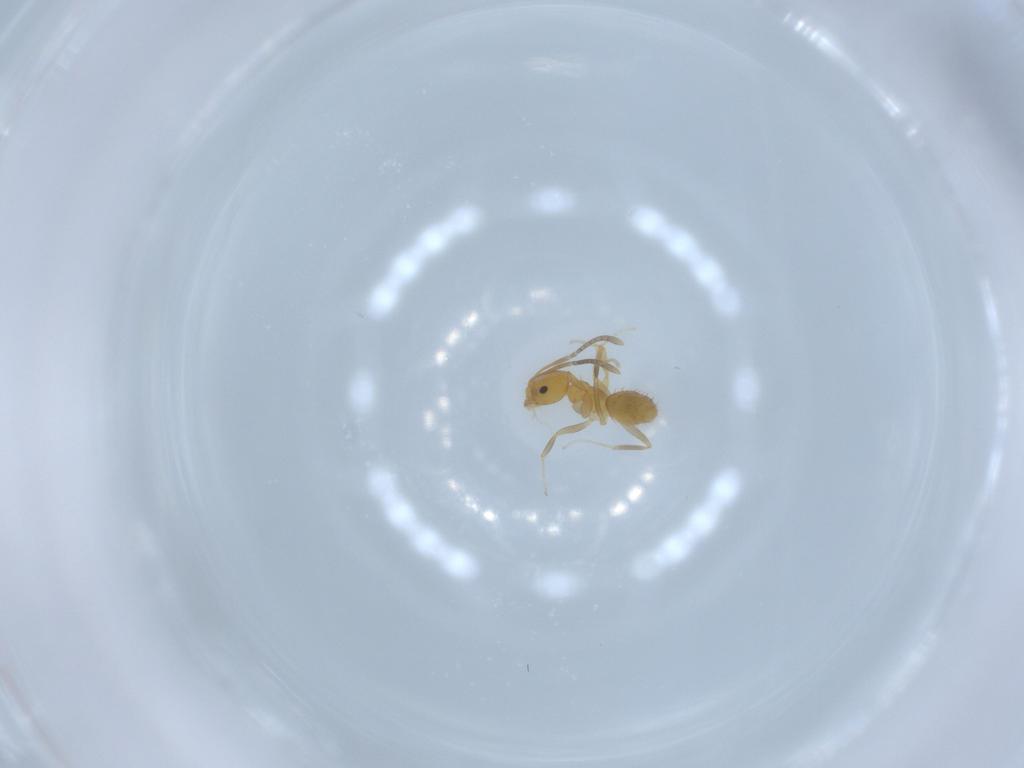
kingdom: Animalia
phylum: Arthropoda
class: Insecta
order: Hymenoptera
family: Formicidae
